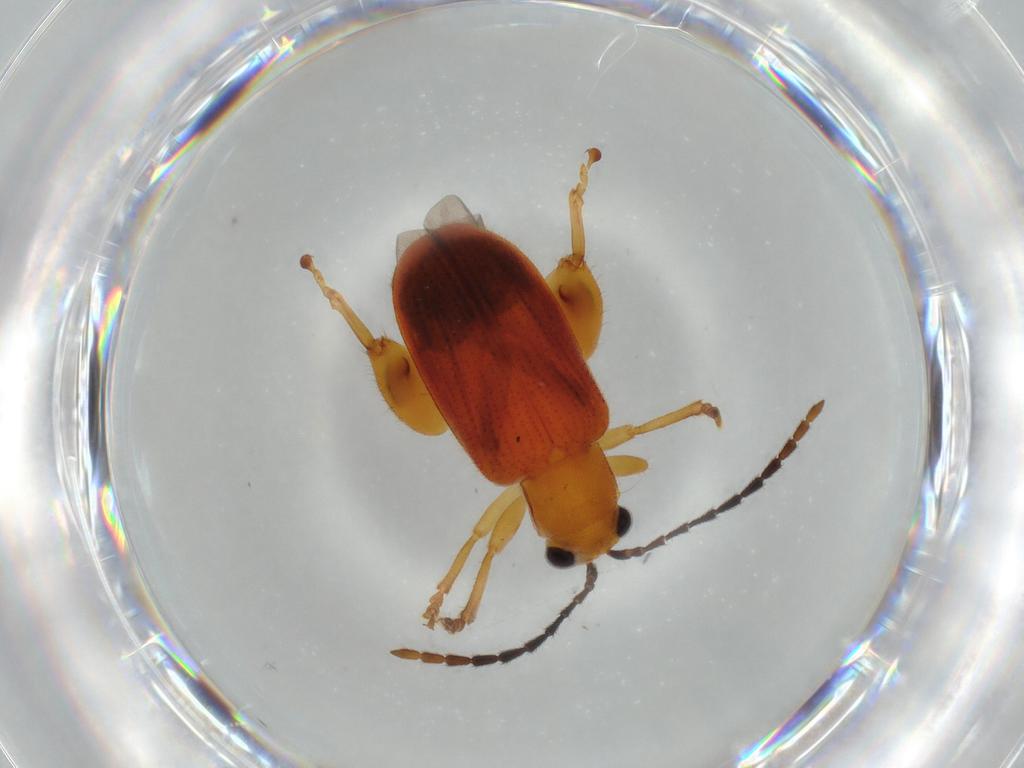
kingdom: Animalia
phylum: Arthropoda
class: Insecta
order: Coleoptera
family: Chrysomelidae
